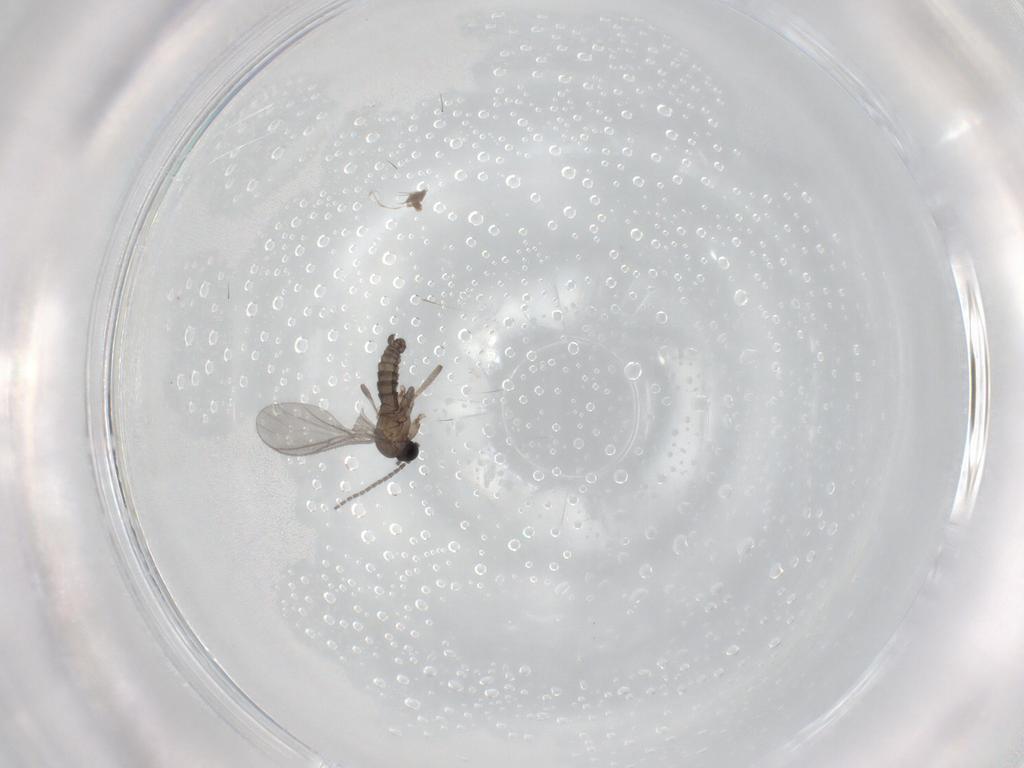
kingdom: Animalia
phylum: Arthropoda
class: Insecta
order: Diptera
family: Sciaridae
